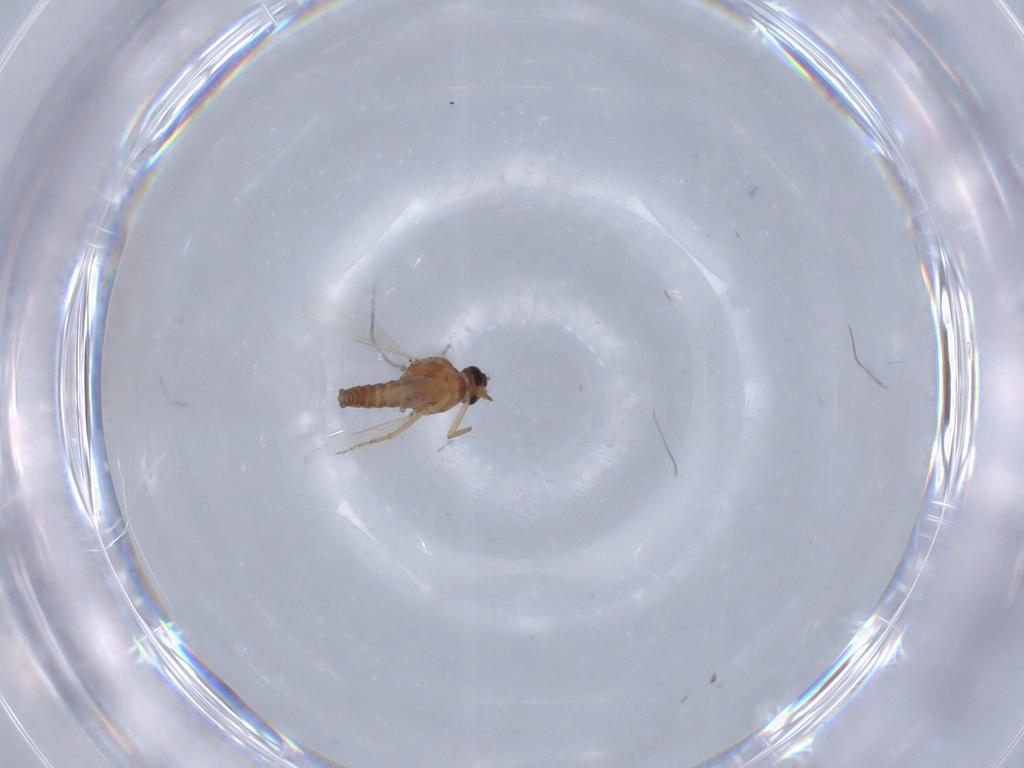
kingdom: Animalia
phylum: Arthropoda
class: Insecta
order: Diptera
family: Ceratopogonidae
